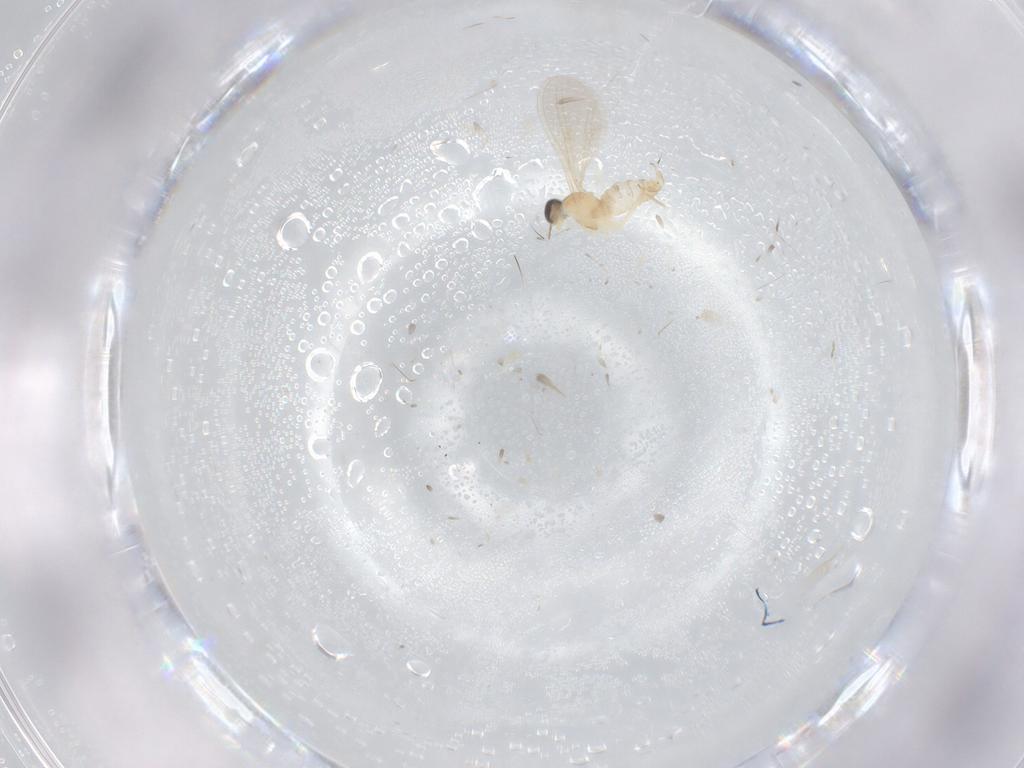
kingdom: Animalia
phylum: Arthropoda
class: Insecta
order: Diptera
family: Cecidomyiidae
